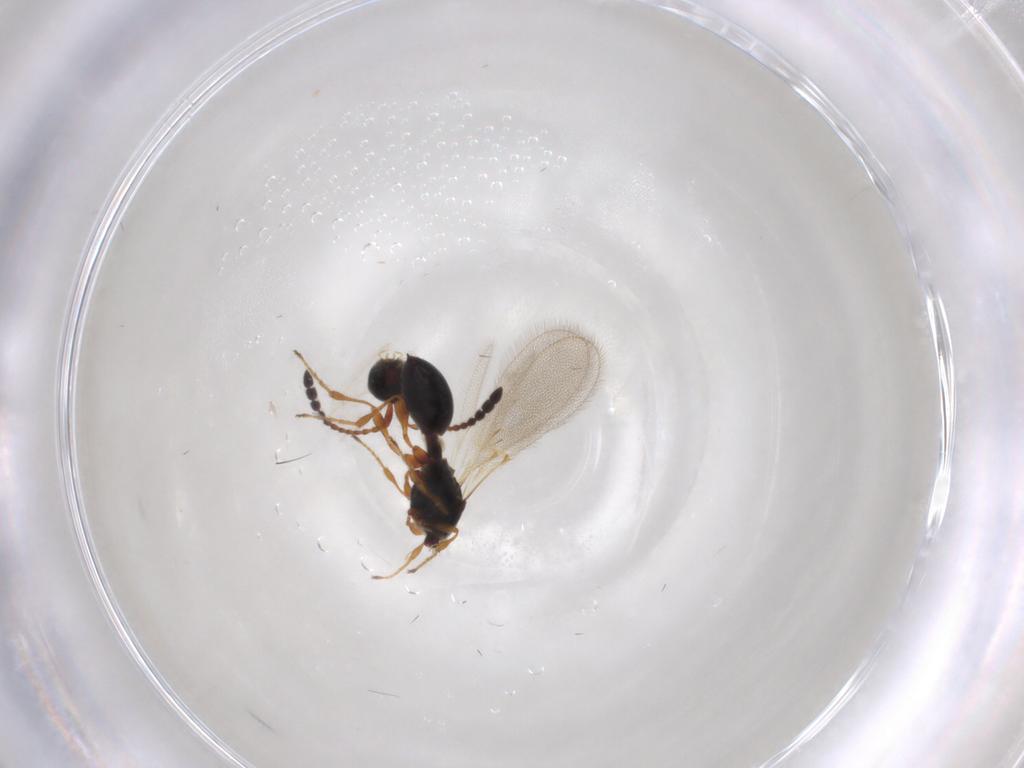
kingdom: Animalia
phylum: Arthropoda
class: Insecta
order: Hymenoptera
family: Diapriidae
